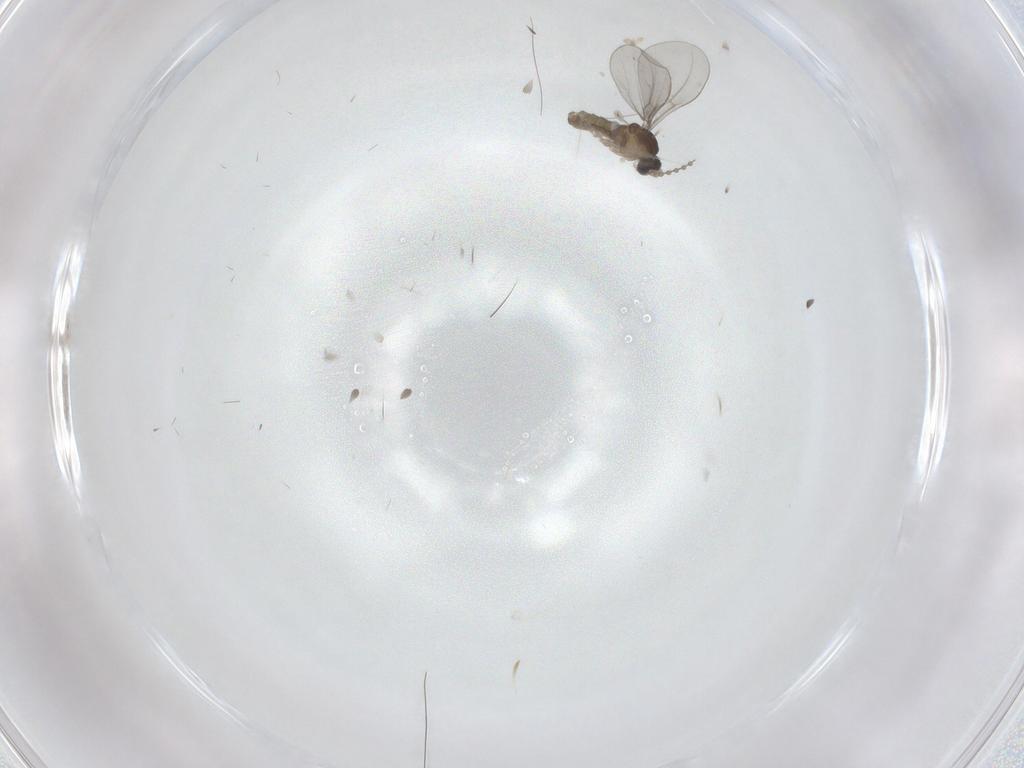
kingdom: Animalia
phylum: Arthropoda
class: Insecta
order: Diptera
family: Cecidomyiidae
